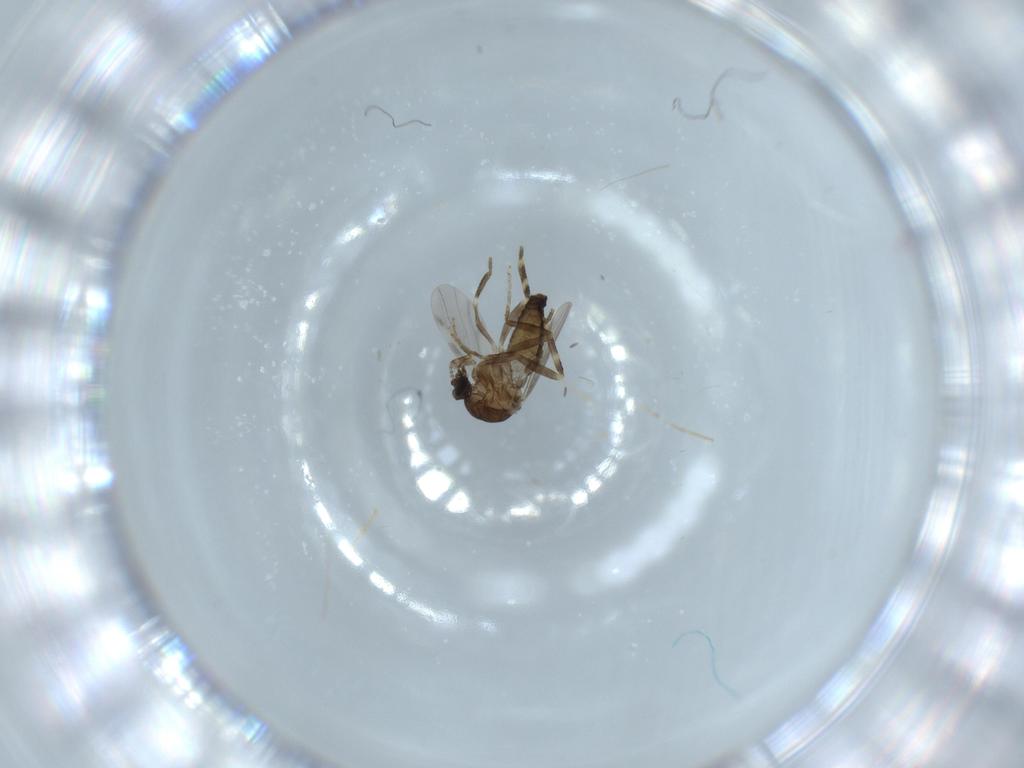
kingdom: Animalia
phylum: Arthropoda
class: Insecta
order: Diptera
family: Ceratopogonidae
